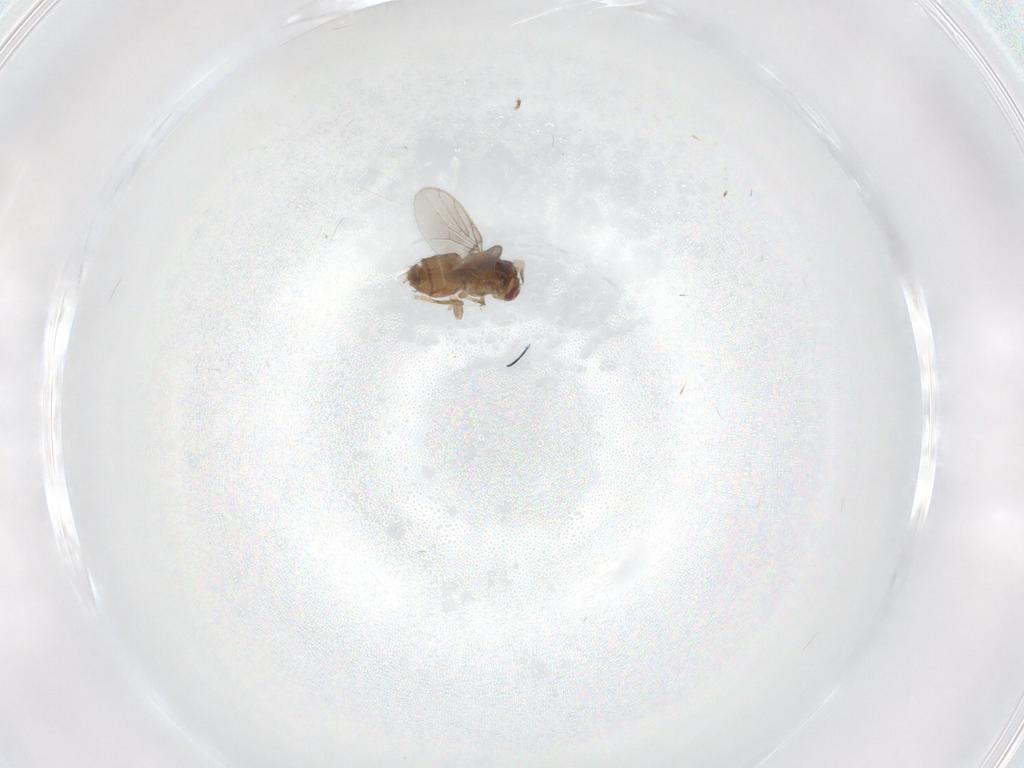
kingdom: Animalia
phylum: Arthropoda
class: Insecta
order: Diptera
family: Chloropidae
